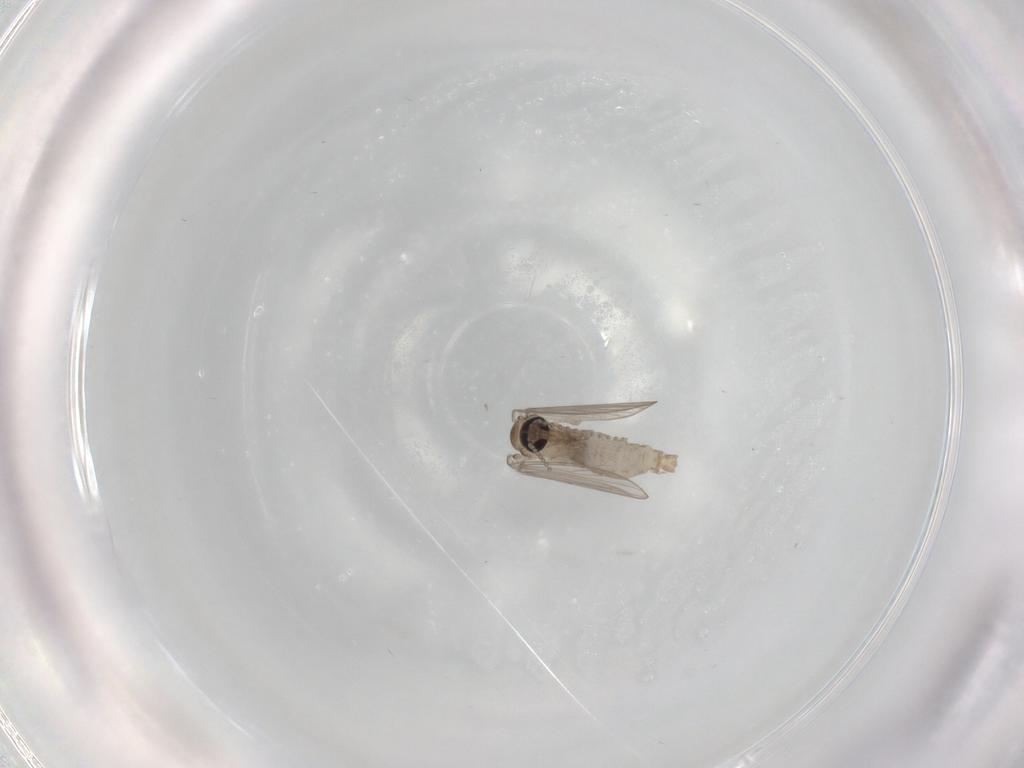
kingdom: Animalia
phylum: Arthropoda
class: Insecta
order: Diptera
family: Psychodidae
